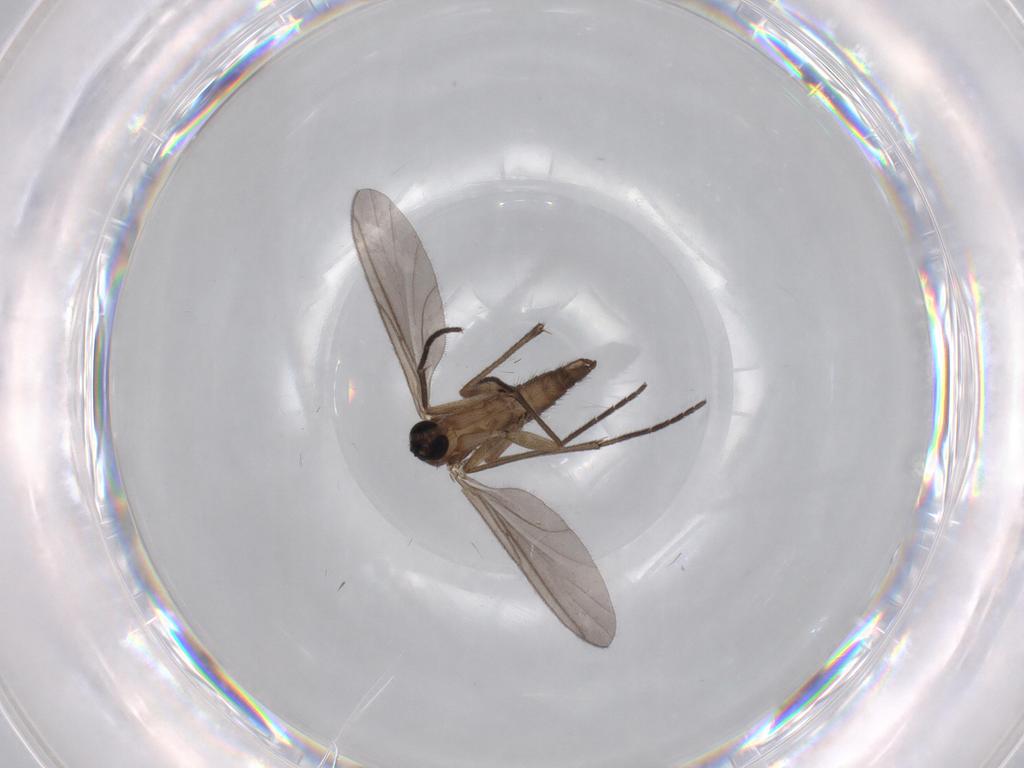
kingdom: Animalia
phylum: Arthropoda
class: Insecta
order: Diptera
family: Sciaridae
